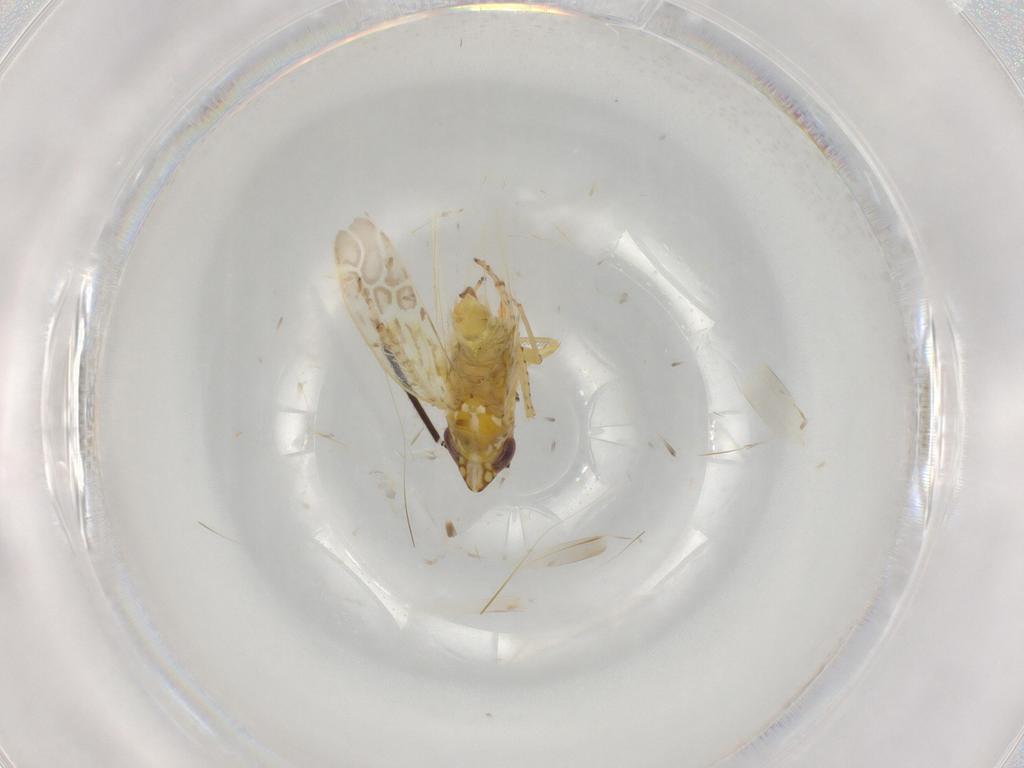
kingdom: Animalia
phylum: Arthropoda
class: Insecta
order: Hemiptera
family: Cicadellidae
